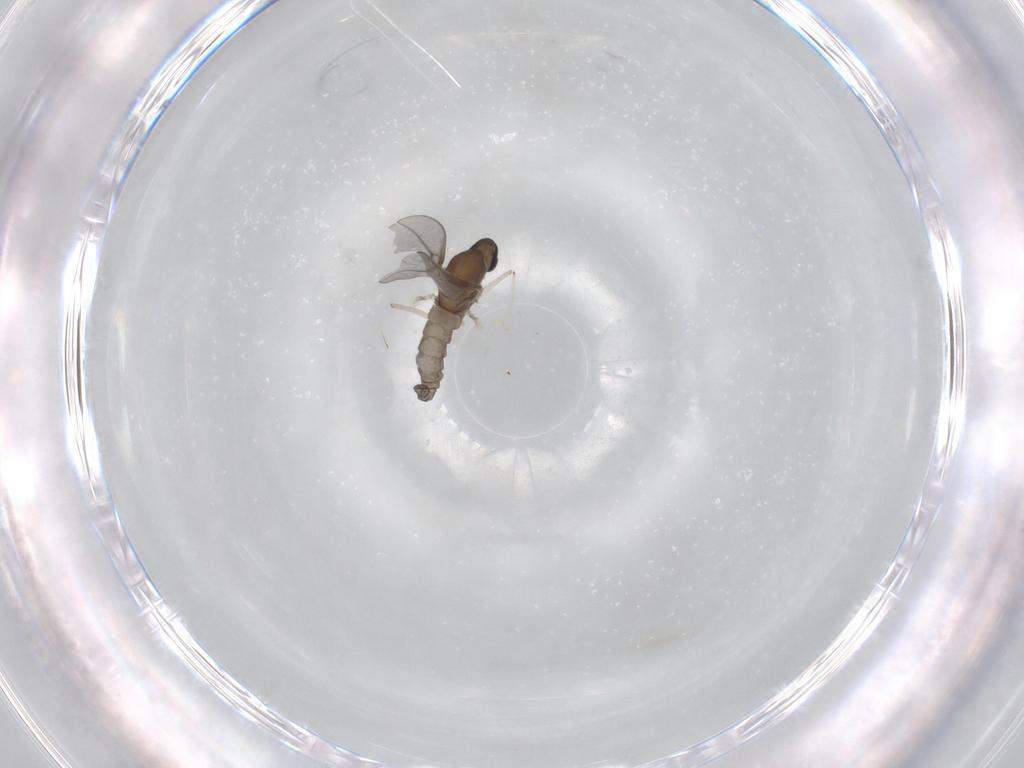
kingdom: Animalia
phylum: Arthropoda
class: Insecta
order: Diptera
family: Cecidomyiidae
